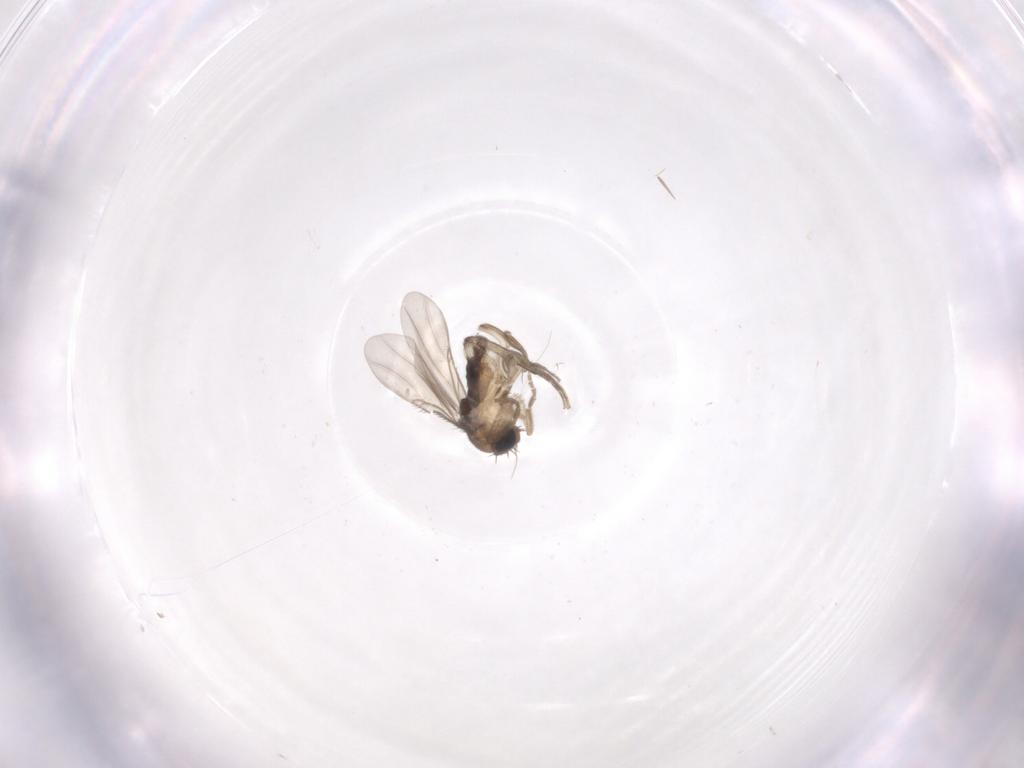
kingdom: Animalia
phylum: Arthropoda
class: Insecta
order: Diptera
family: Phoridae
